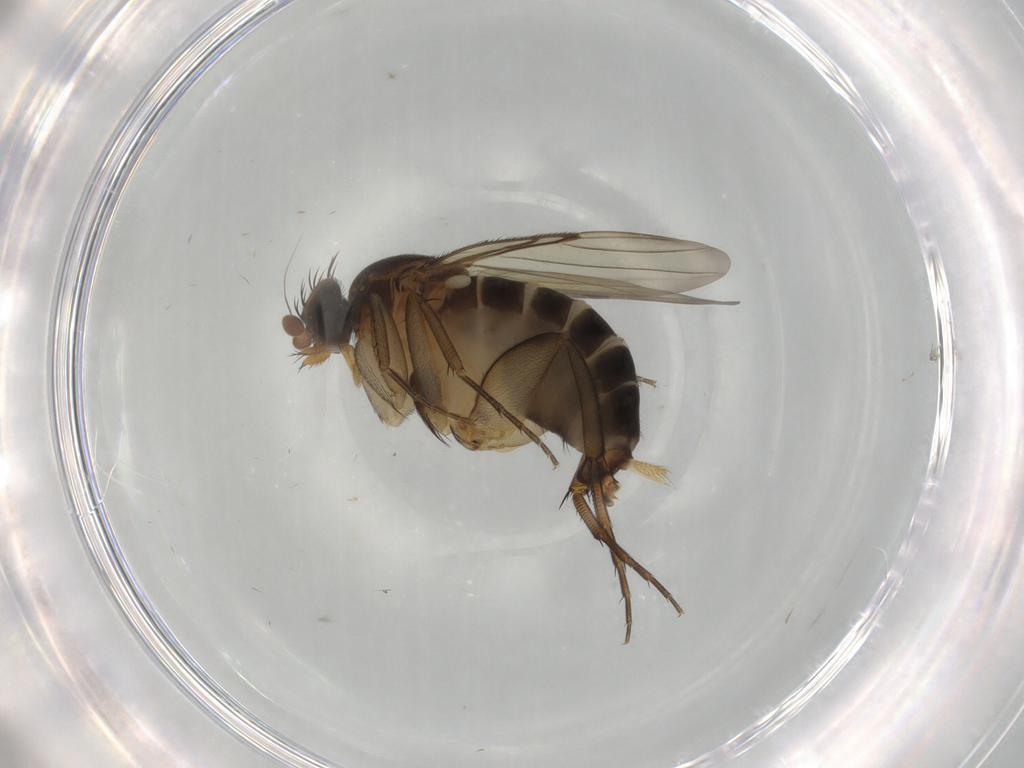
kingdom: Animalia
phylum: Arthropoda
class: Insecta
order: Diptera
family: Phoridae
